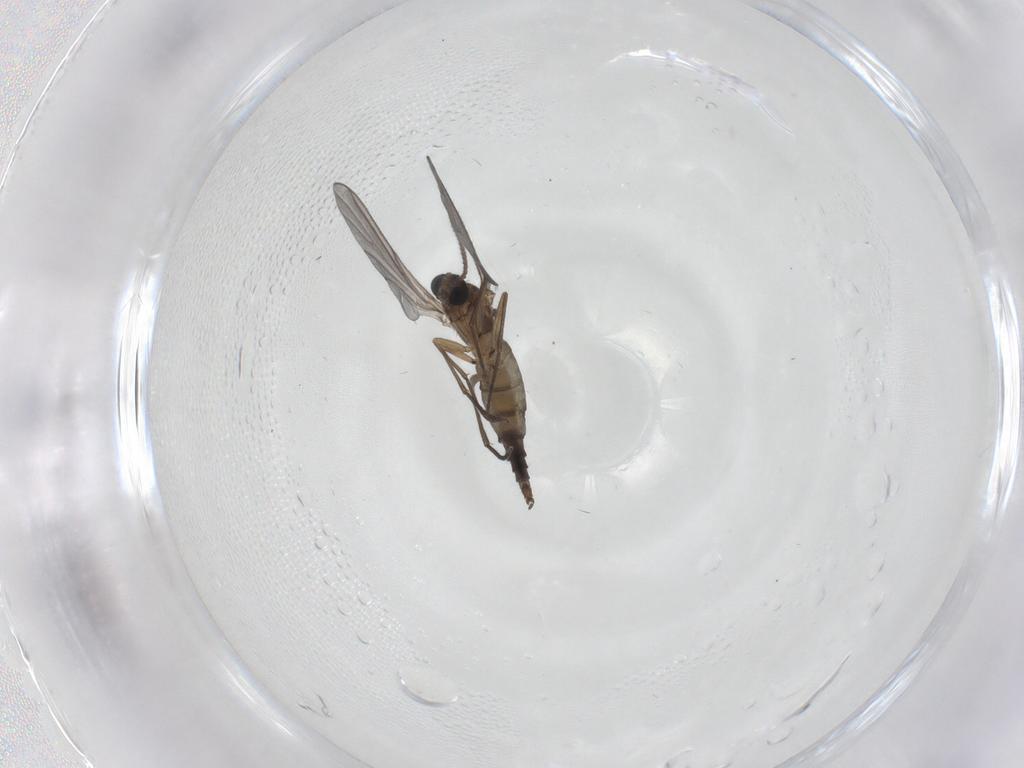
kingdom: Animalia
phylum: Arthropoda
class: Insecta
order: Diptera
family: Sciaridae
